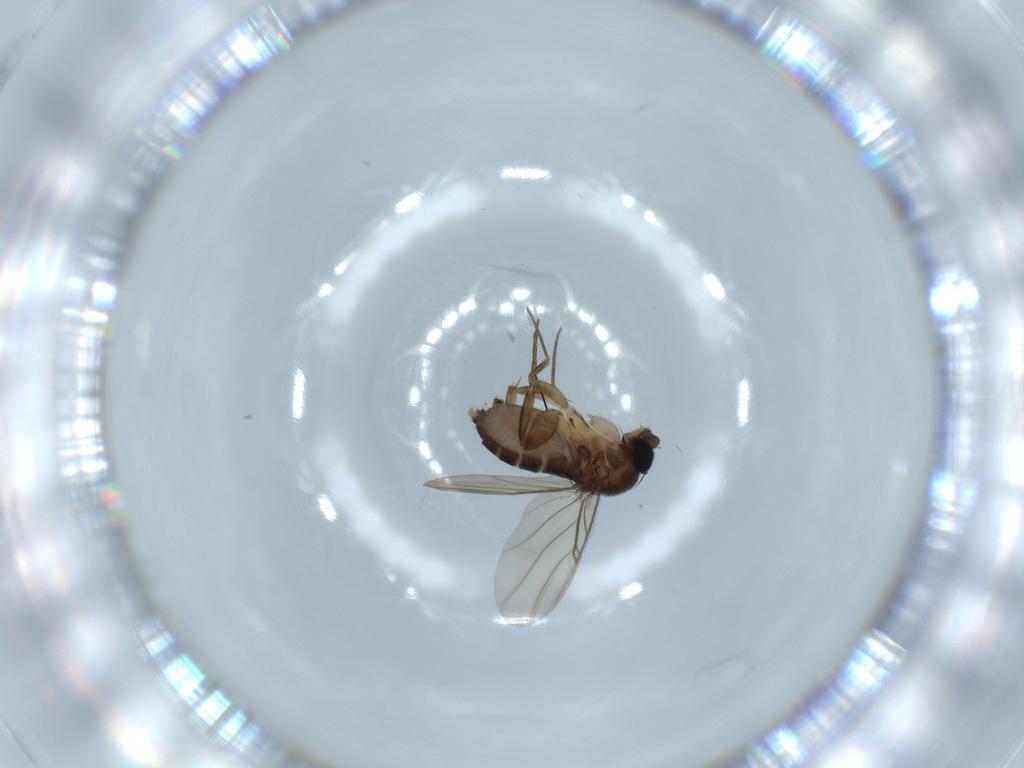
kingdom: Animalia
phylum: Arthropoda
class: Insecta
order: Diptera
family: Phoridae
